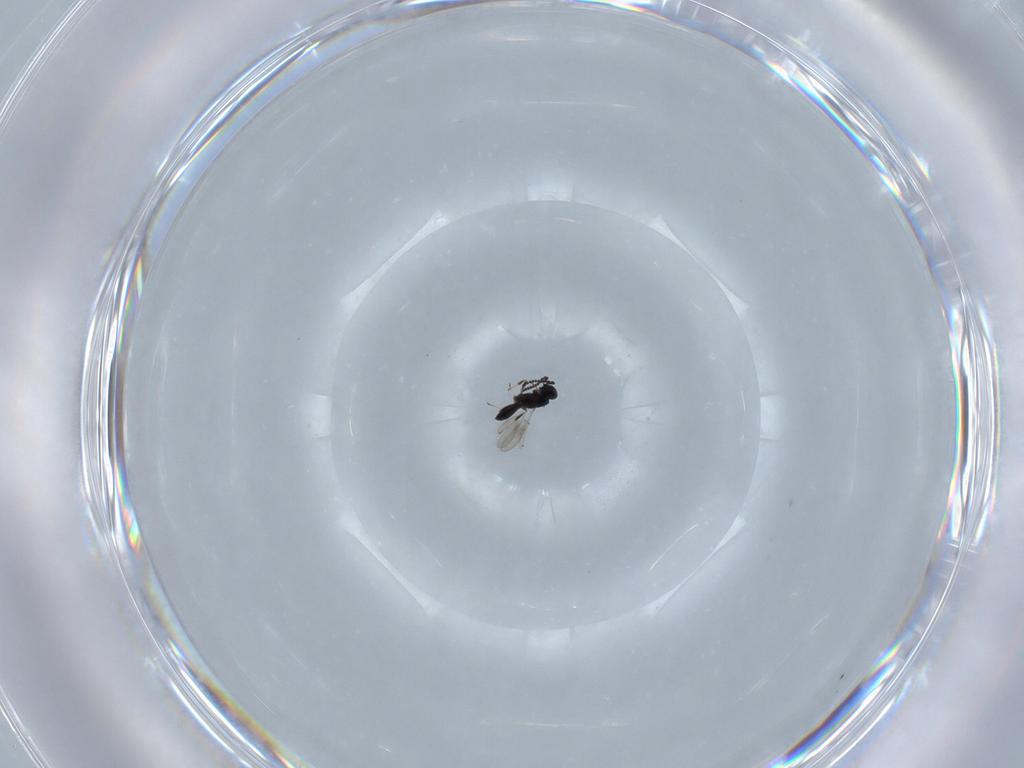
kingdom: Animalia
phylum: Arthropoda
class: Insecta
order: Hymenoptera
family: Scelionidae
